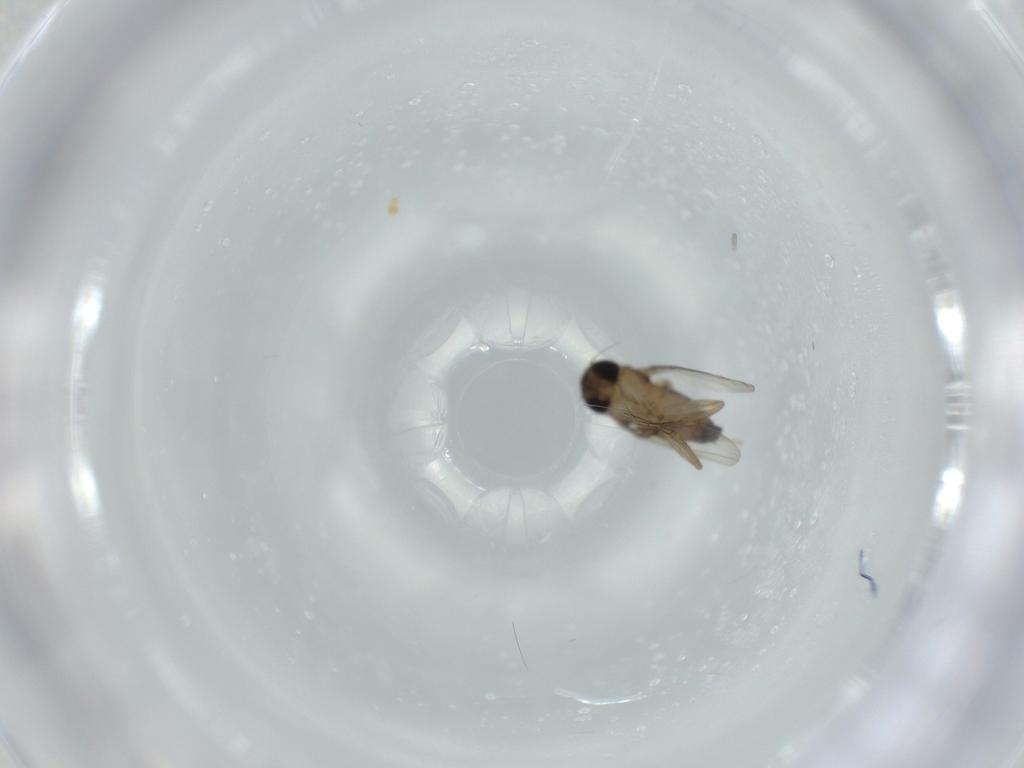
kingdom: Animalia
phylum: Arthropoda
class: Insecta
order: Diptera
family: Phoridae
